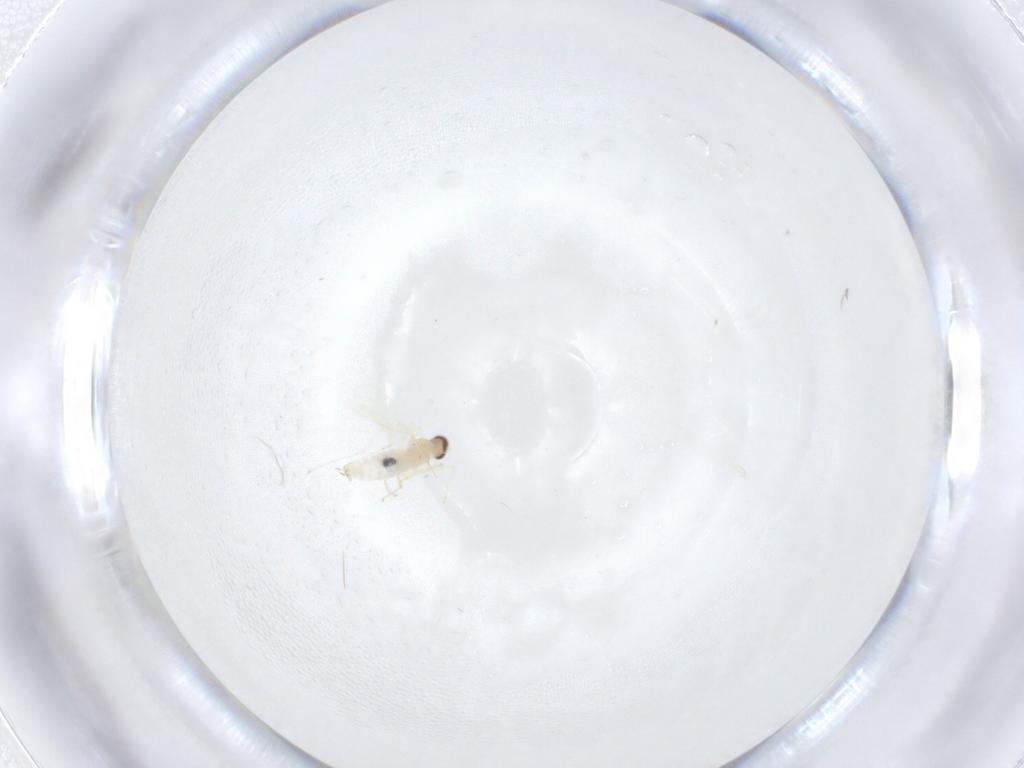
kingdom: Animalia
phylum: Arthropoda
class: Insecta
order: Diptera
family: Cecidomyiidae
